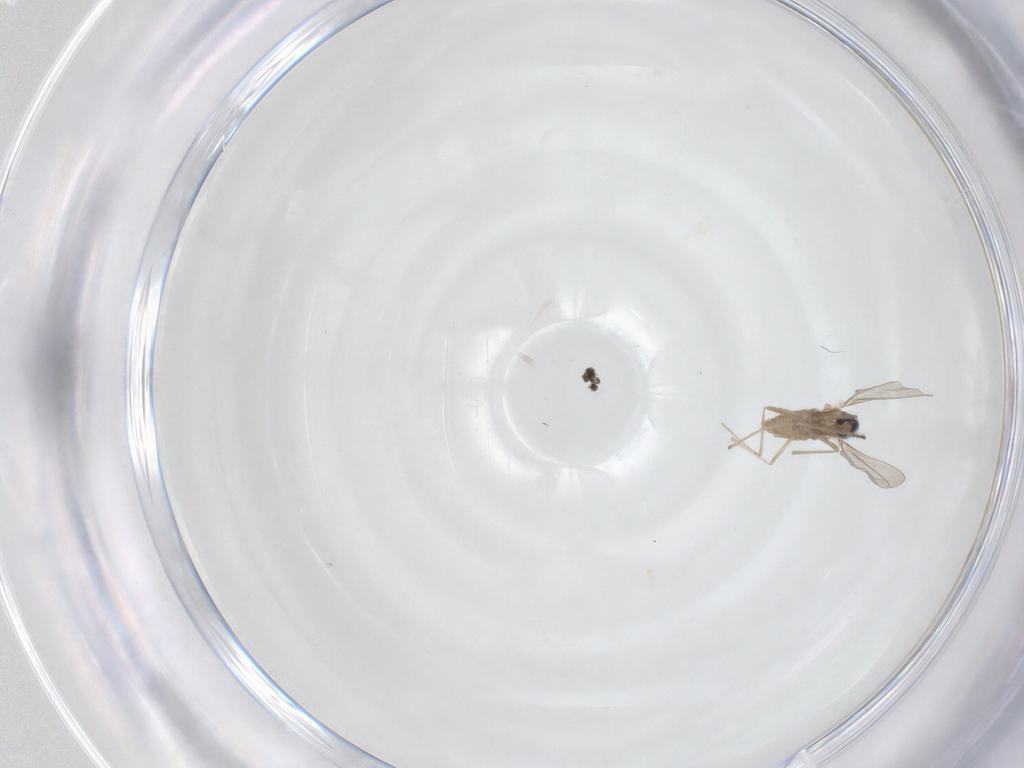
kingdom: Animalia
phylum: Arthropoda
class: Insecta
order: Diptera
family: Cecidomyiidae
